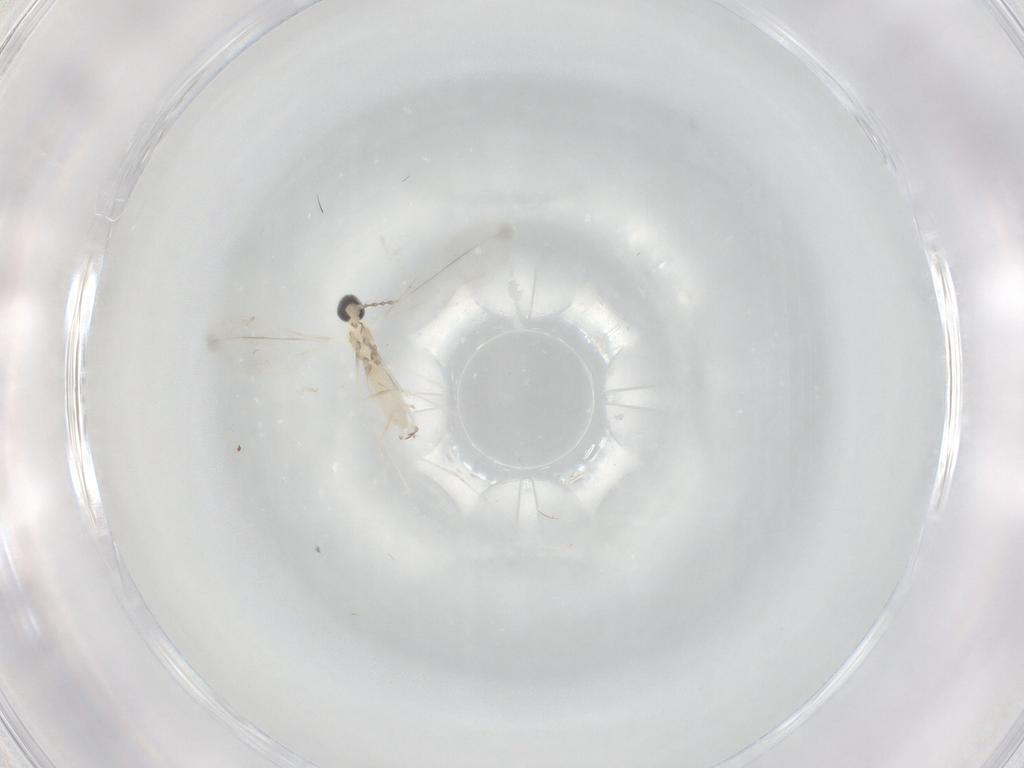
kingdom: Animalia
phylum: Arthropoda
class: Insecta
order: Diptera
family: Cecidomyiidae
